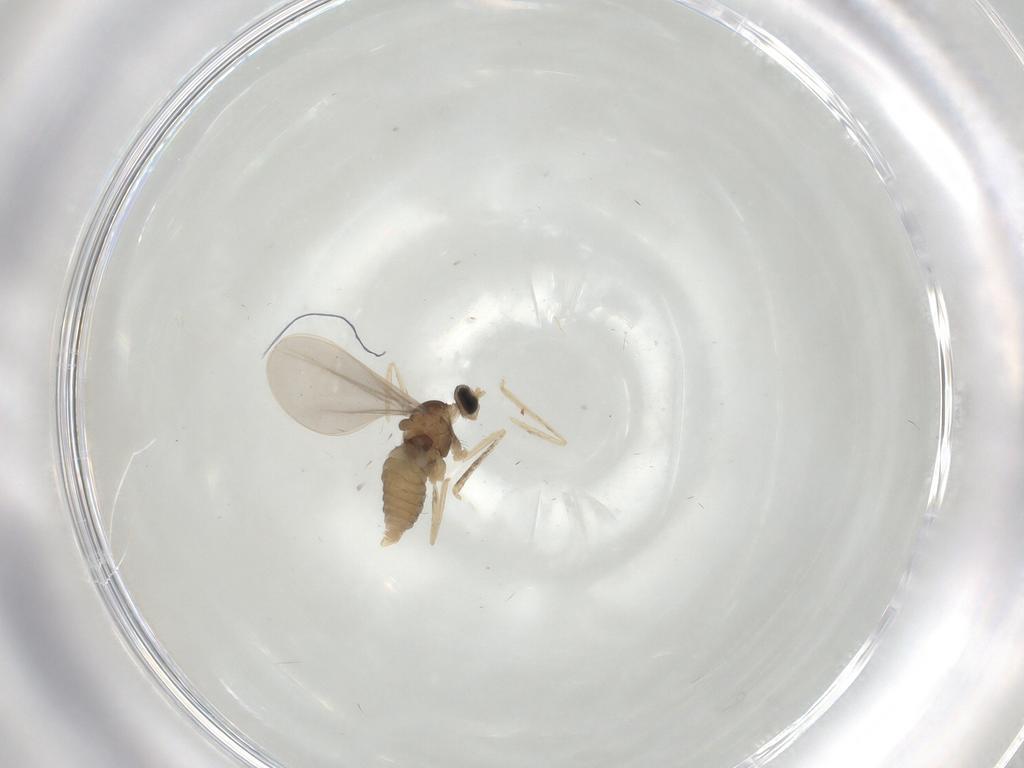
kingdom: Animalia
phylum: Arthropoda
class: Insecta
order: Diptera
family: Cecidomyiidae
